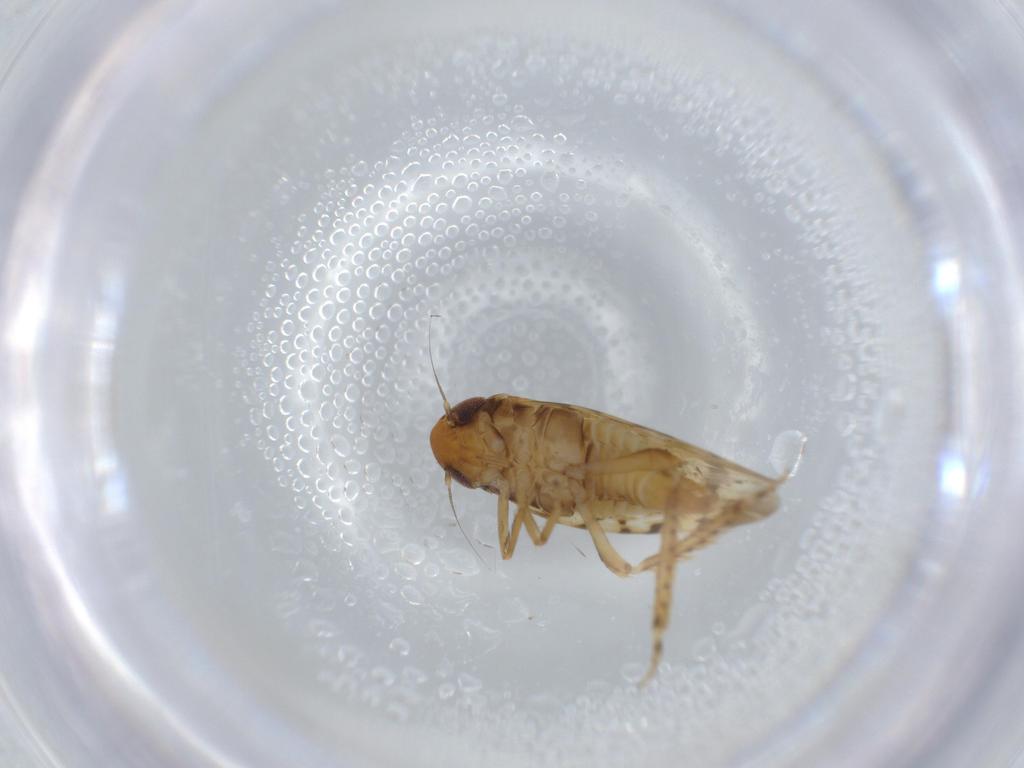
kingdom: Animalia
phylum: Arthropoda
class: Insecta
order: Hemiptera
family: Cicadellidae
